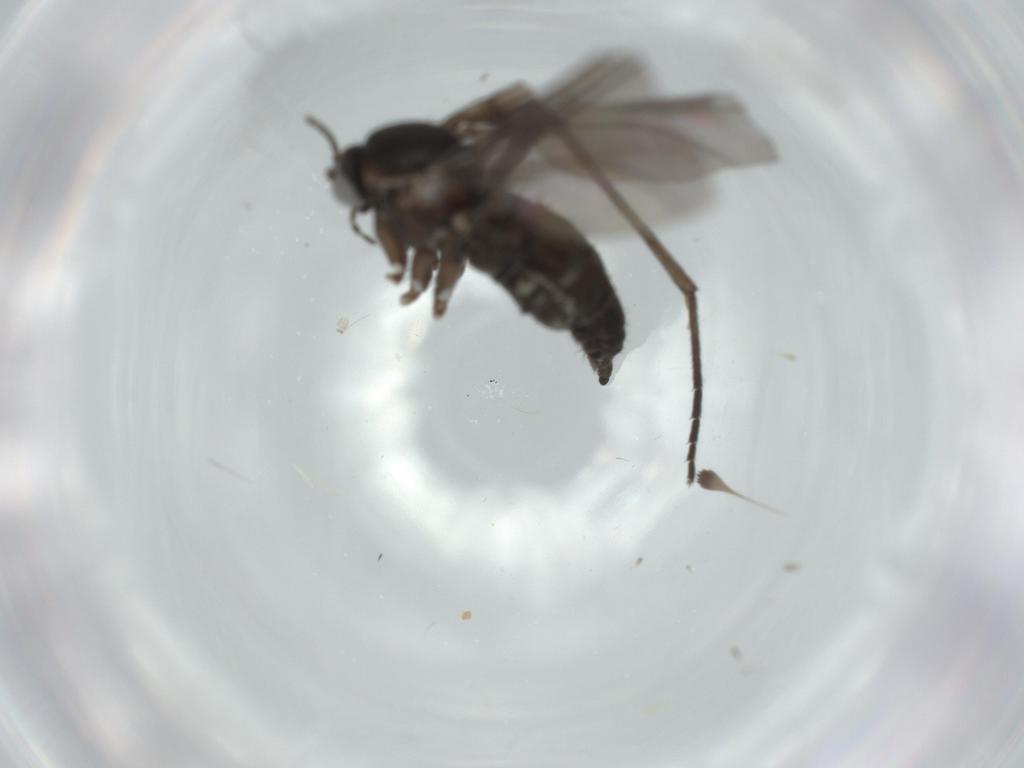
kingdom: Animalia
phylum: Arthropoda
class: Insecta
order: Diptera
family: Sciaridae
